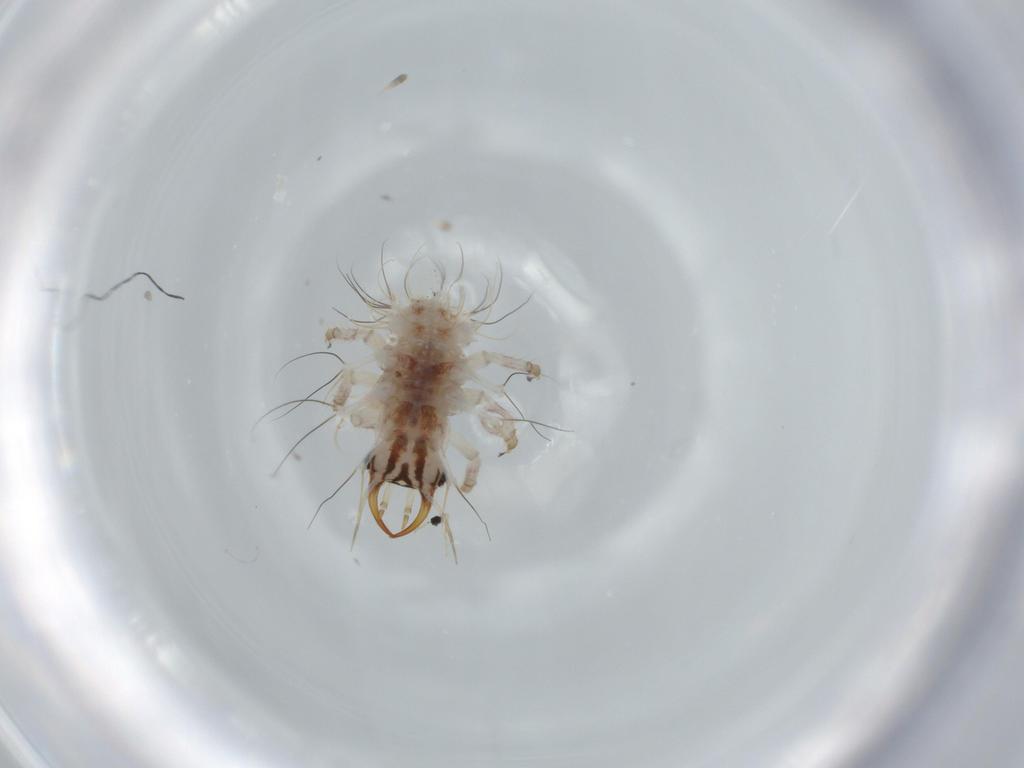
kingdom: Animalia
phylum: Arthropoda
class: Insecta
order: Neuroptera
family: Chrysopidae
